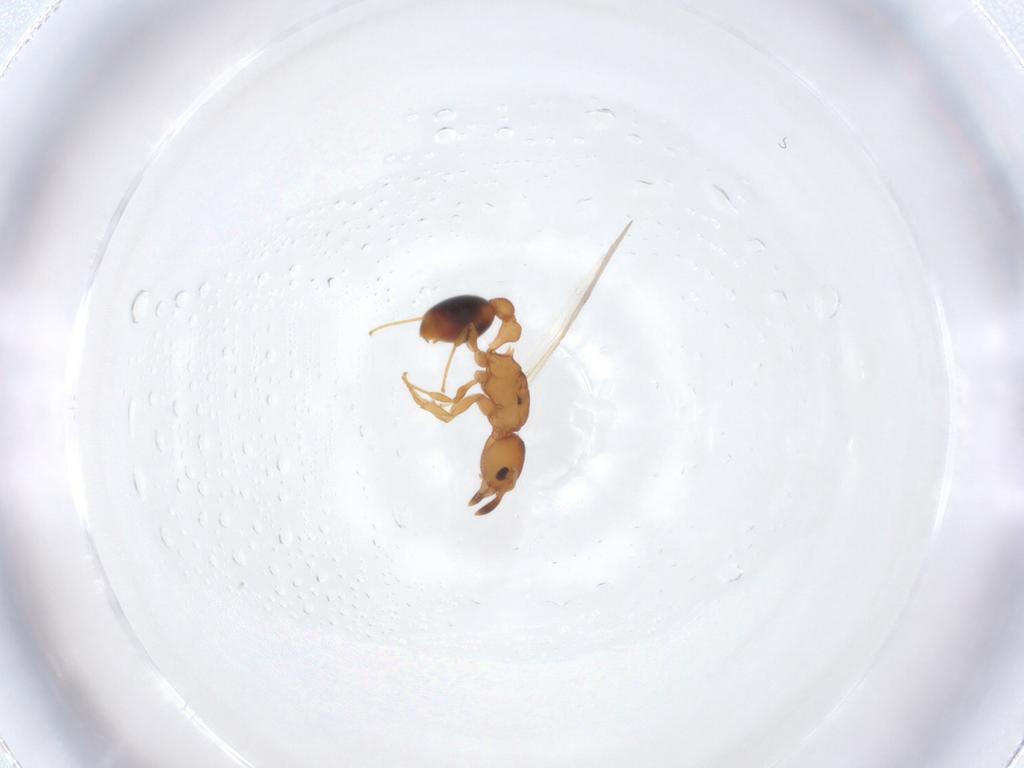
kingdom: Animalia
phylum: Arthropoda
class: Insecta
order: Hymenoptera
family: Formicidae
